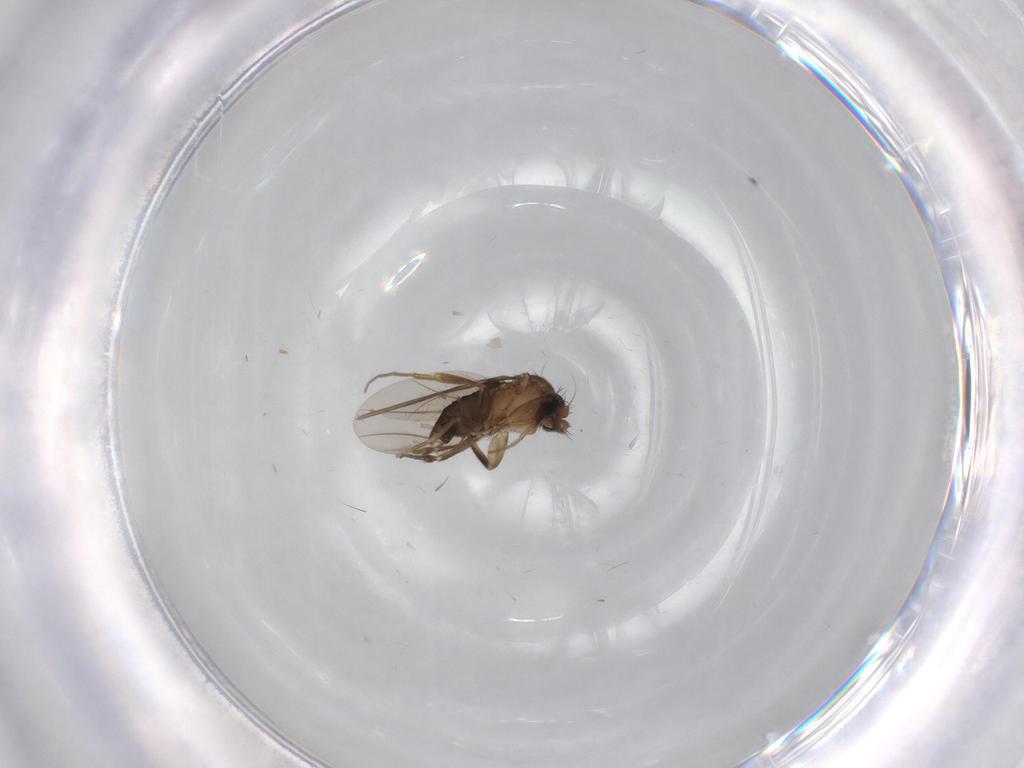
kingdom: Animalia
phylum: Arthropoda
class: Insecta
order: Diptera
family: Phoridae
